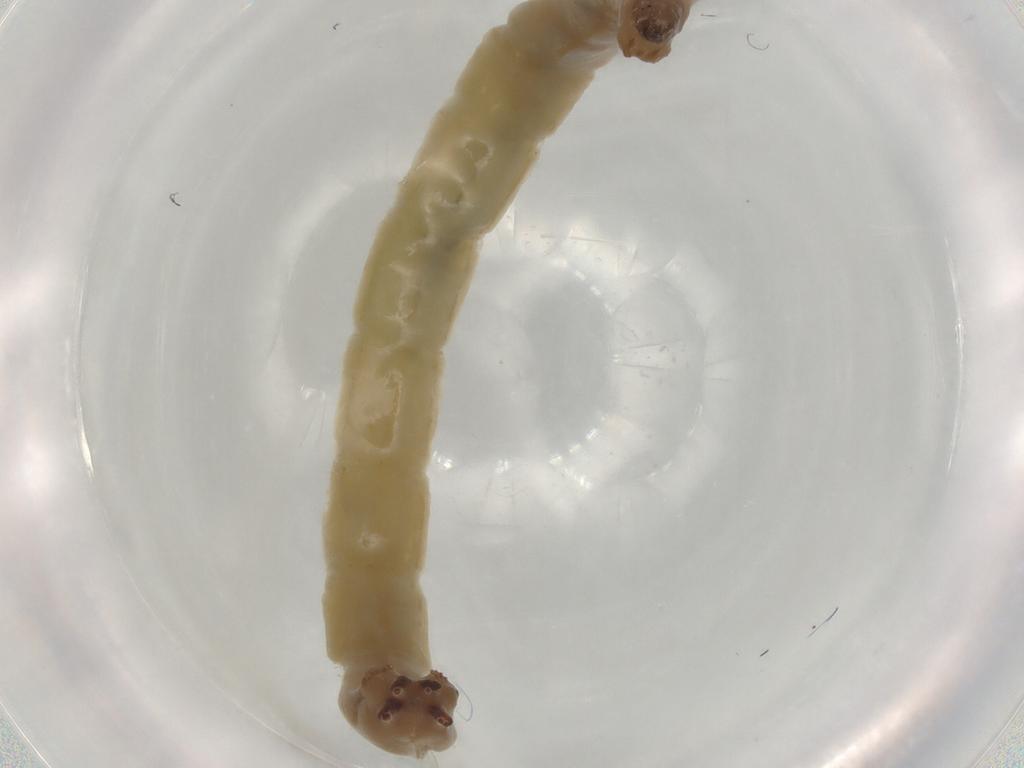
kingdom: Animalia
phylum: Arthropoda
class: Insecta
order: Diptera
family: Chironomidae
